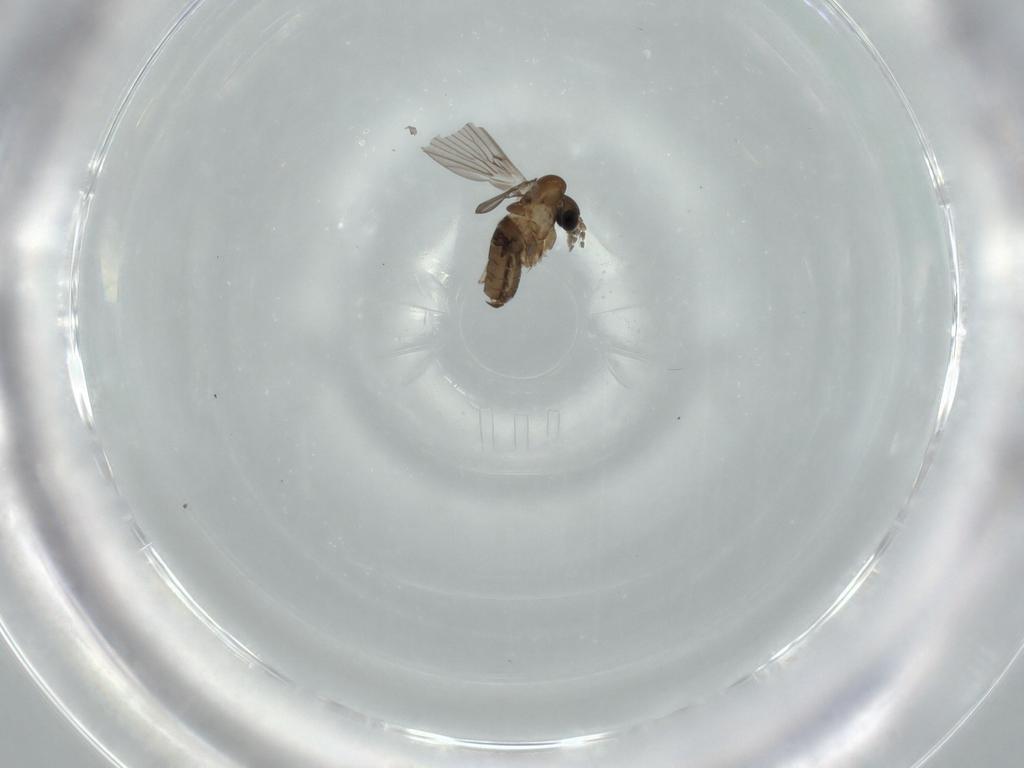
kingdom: Animalia
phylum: Arthropoda
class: Insecta
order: Diptera
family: Psychodidae
